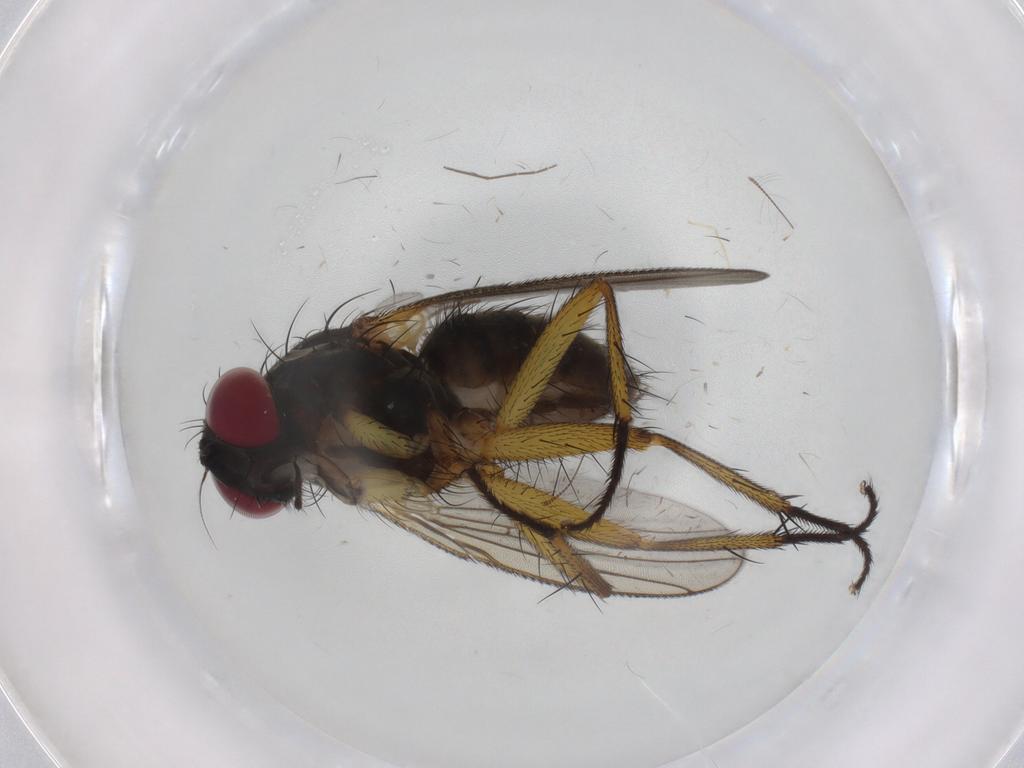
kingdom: Animalia
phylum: Arthropoda
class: Insecta
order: Diptera
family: Muscidae
